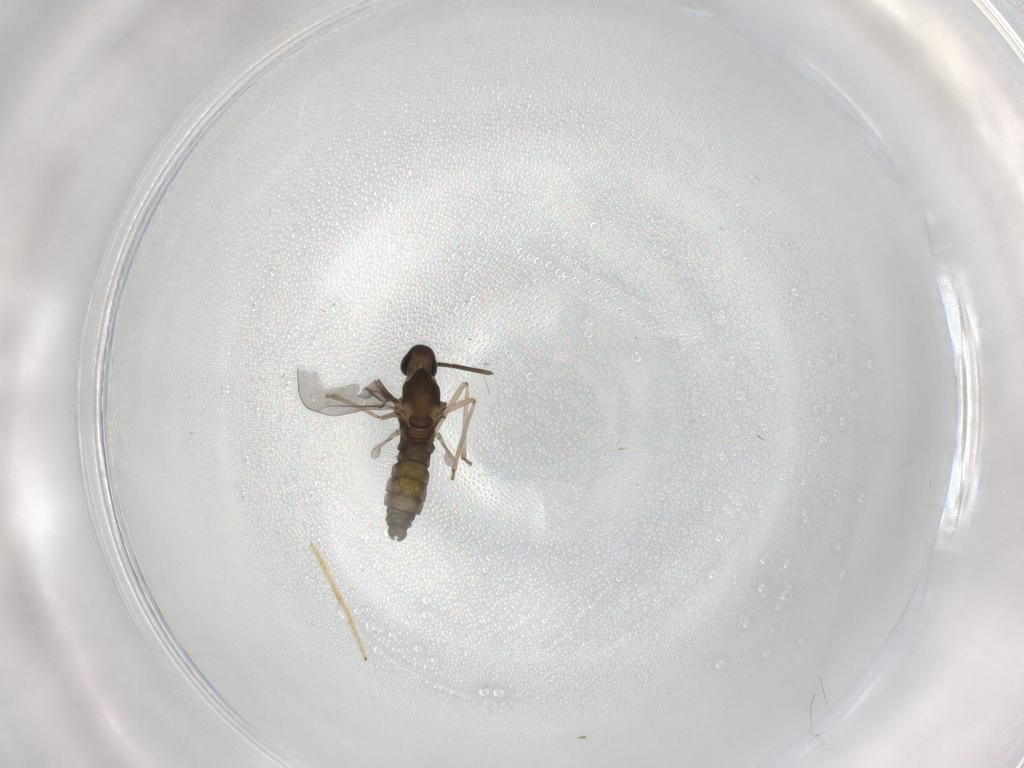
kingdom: Animalia
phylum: Arthropoda
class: Insecta
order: Diptera
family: Cecidomyiidae
